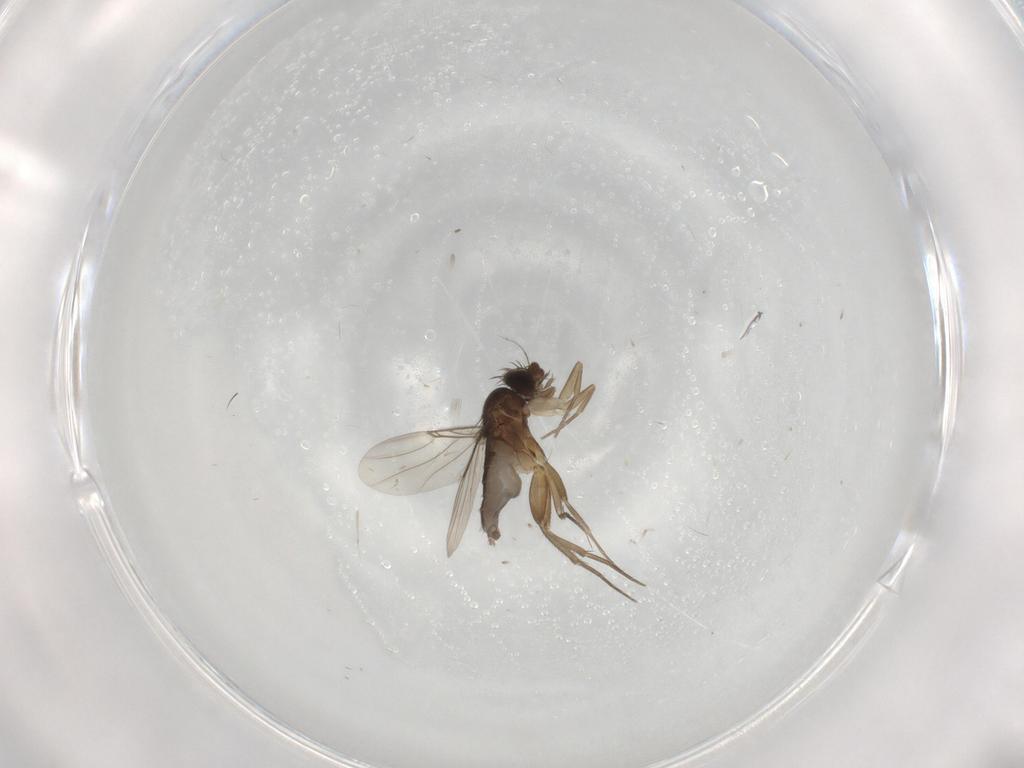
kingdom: Animalia
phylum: Arthropoda
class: Insecta
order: Diptera
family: Phoridae
